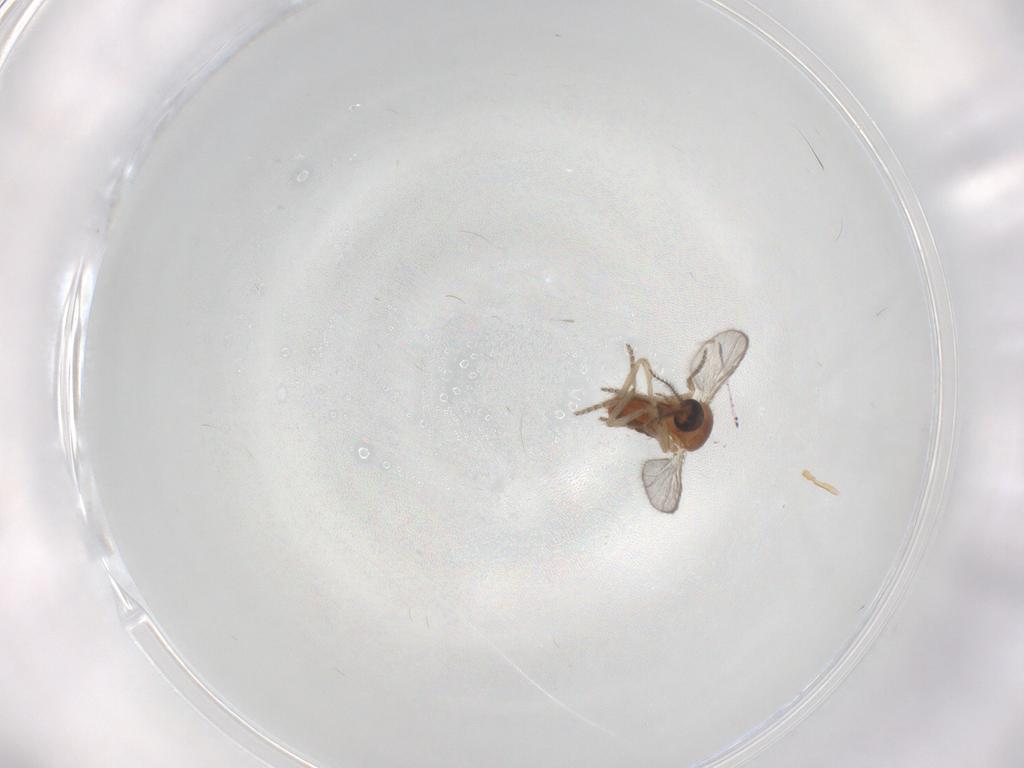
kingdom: Animalia
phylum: Arthropoda
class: Insecta
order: Diptera
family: Ceratopogonidae
